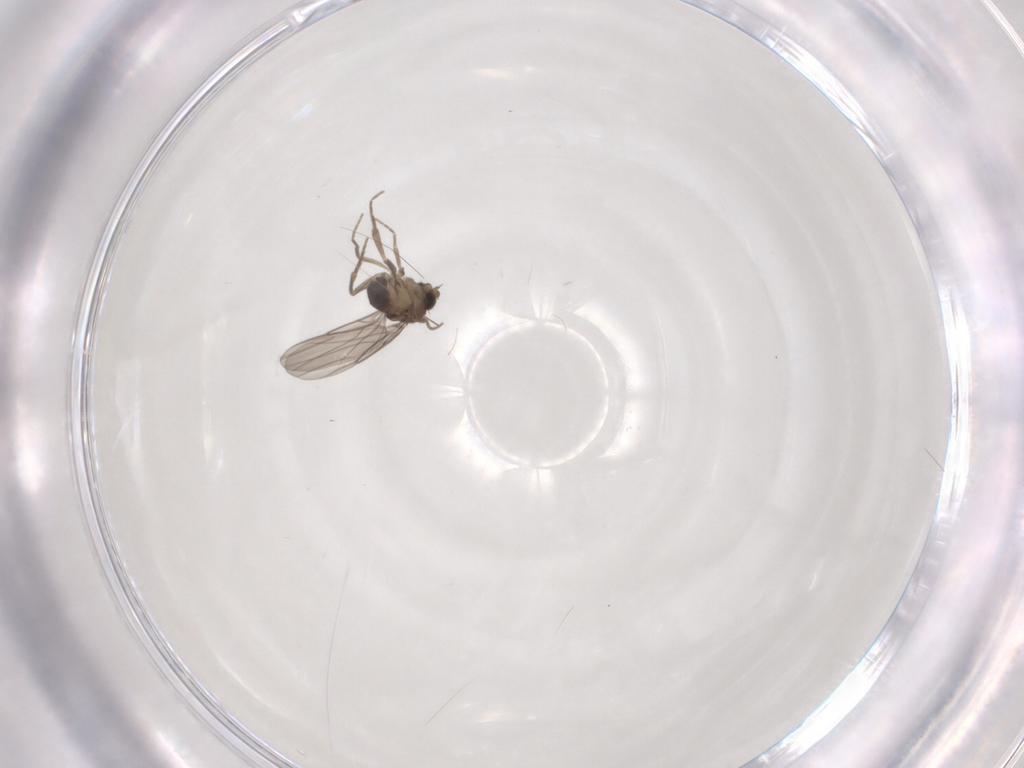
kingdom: Animalia
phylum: Arthropoda
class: Insecta
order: Diptera
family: Phoridae
